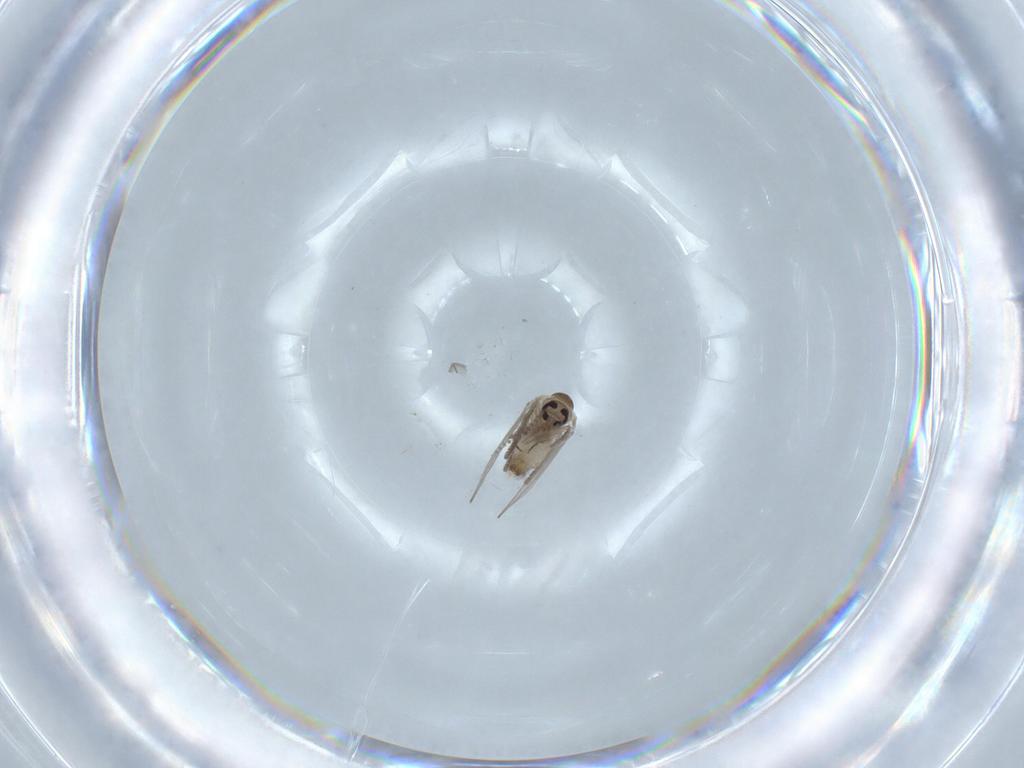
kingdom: Animalia
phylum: Arthropoda
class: Insecta
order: Diptera
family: Psychodidae
